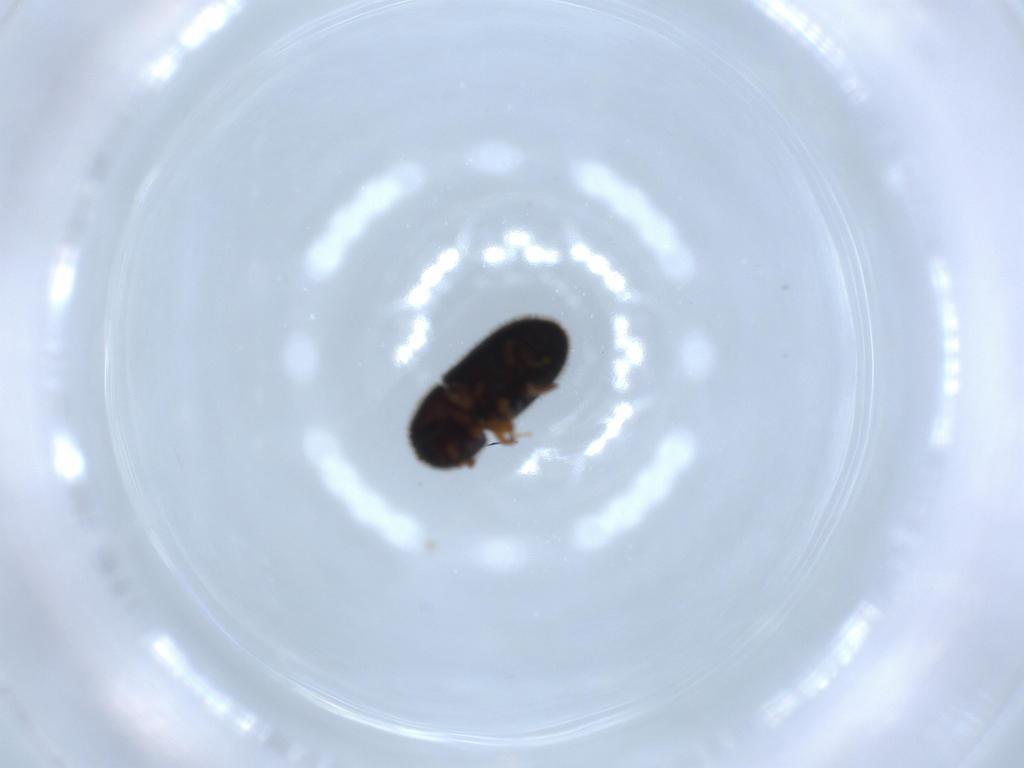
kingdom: Animalia
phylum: Arthropoda
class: Insecta
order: Coleoptera
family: Curculionidae
